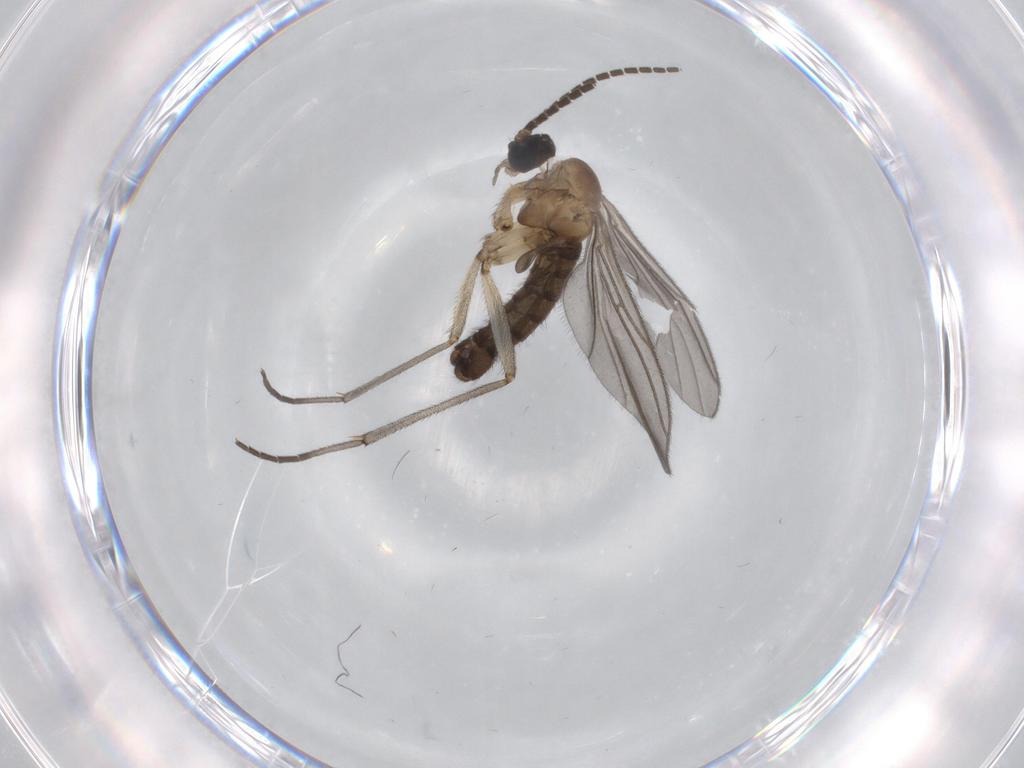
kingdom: Animalia
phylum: Arthropoda
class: Insecta
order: Diptera
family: Sciaridae
